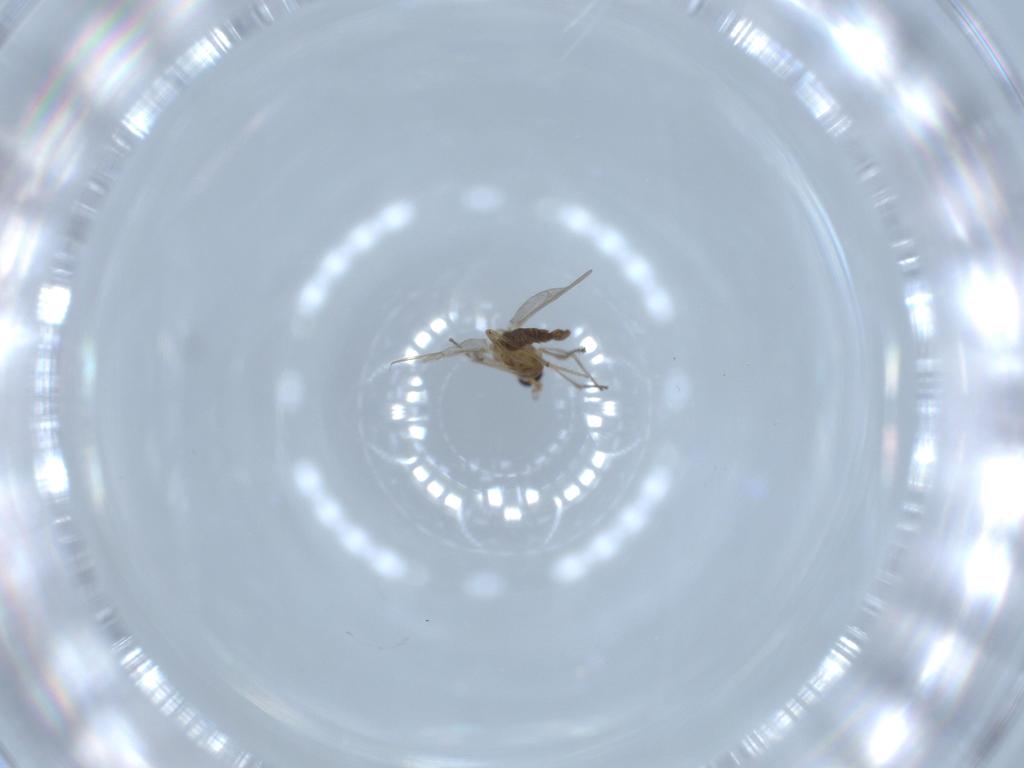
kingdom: Animalia
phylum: Arthropoda
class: Insecta
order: Diptera
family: Chironomidae
